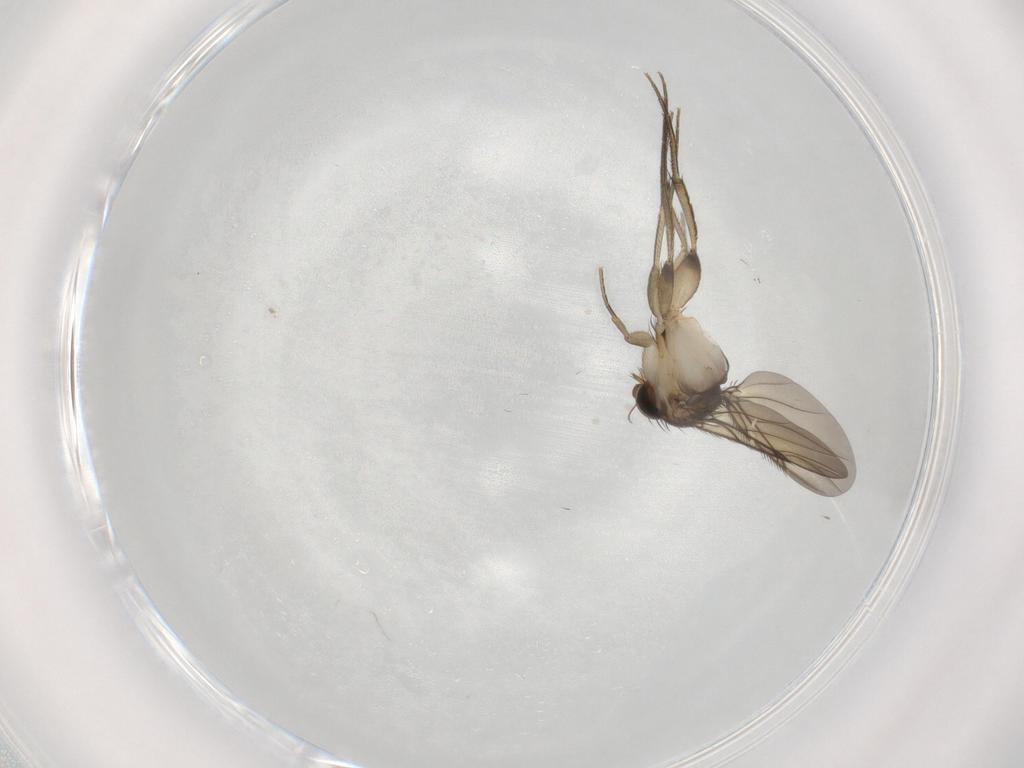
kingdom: Animalia
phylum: Arthropoda
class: Insecta
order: Diptera
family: Phoridae
